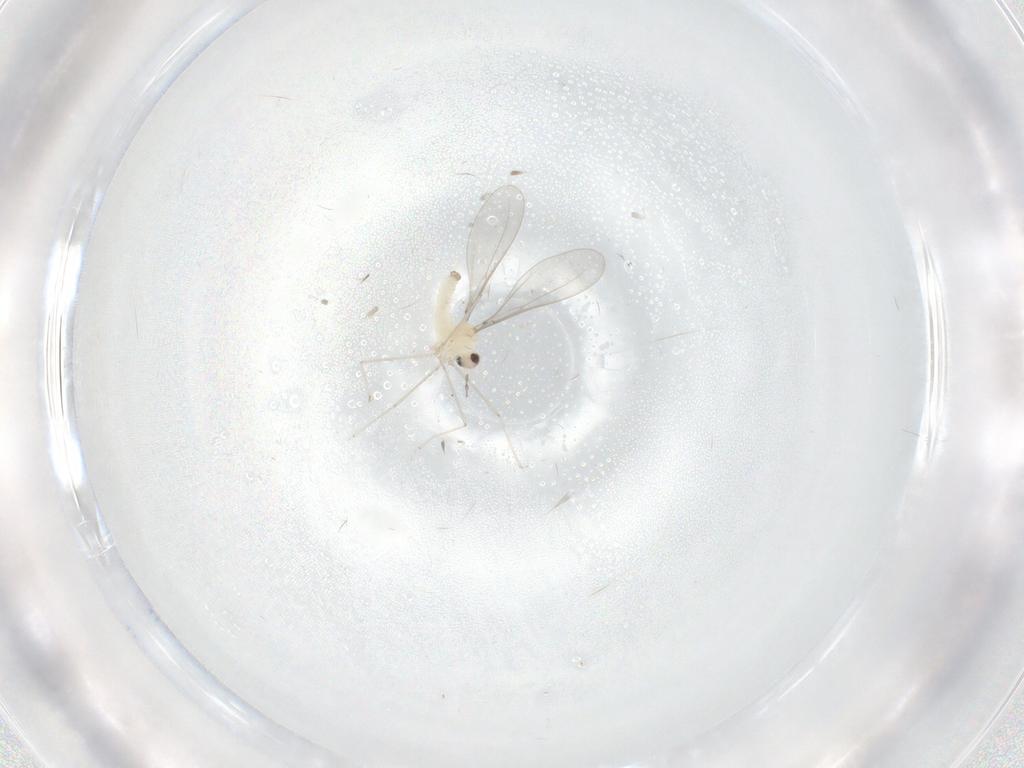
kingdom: Animalia
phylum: Arthropoda
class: Insecta
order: Diptera
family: Cecidomyiidae
